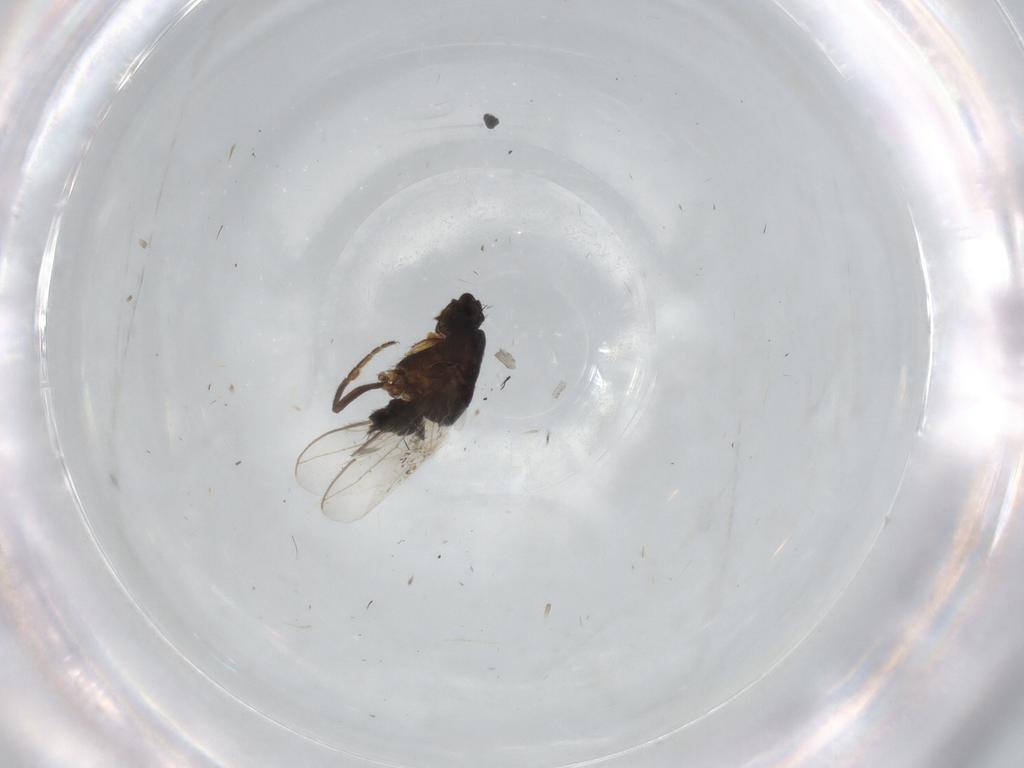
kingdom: Animalia
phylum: Arthropoda
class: Insecta
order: Diptera
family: Sphaeroceridae
